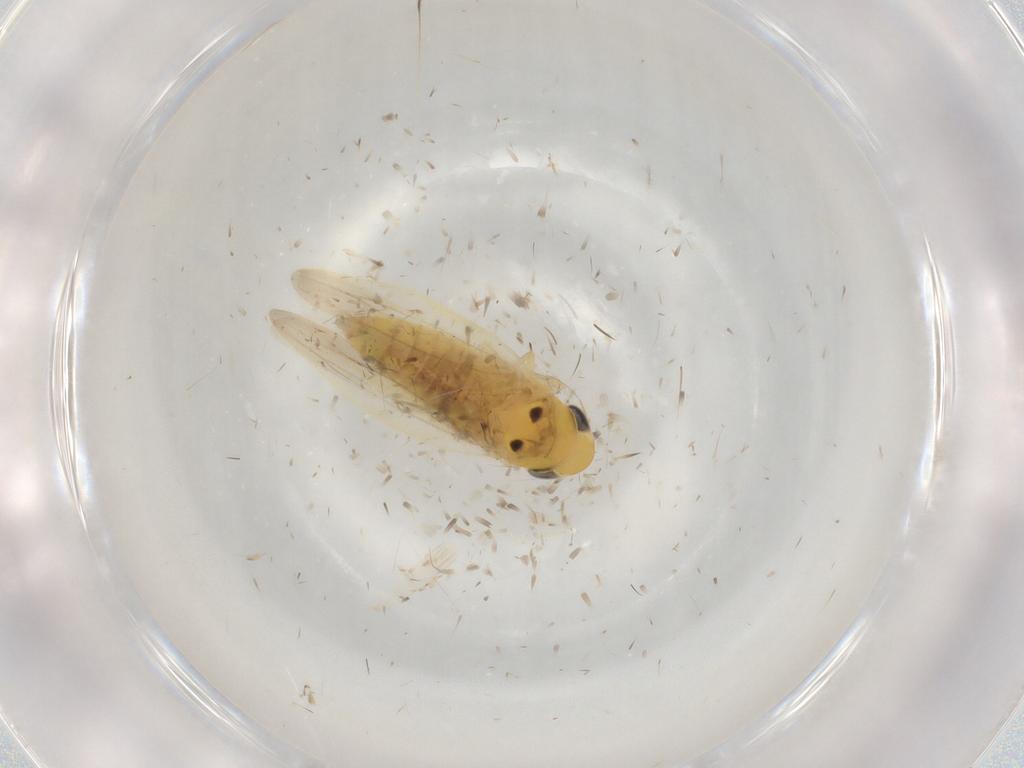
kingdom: Animalia
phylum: Arthropoda
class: Insecta
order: Hemiptera
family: Cicadellidae
